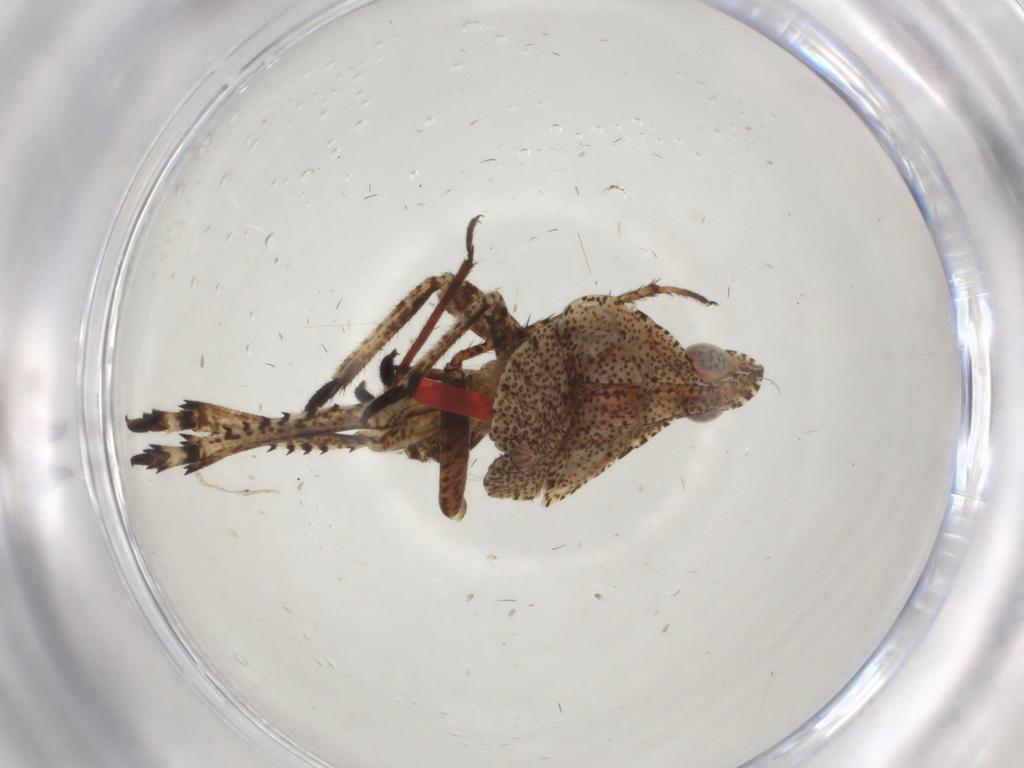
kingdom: Animalia
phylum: Arthropoda
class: Insecta
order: Hemiptera
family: Dictyopharidae
